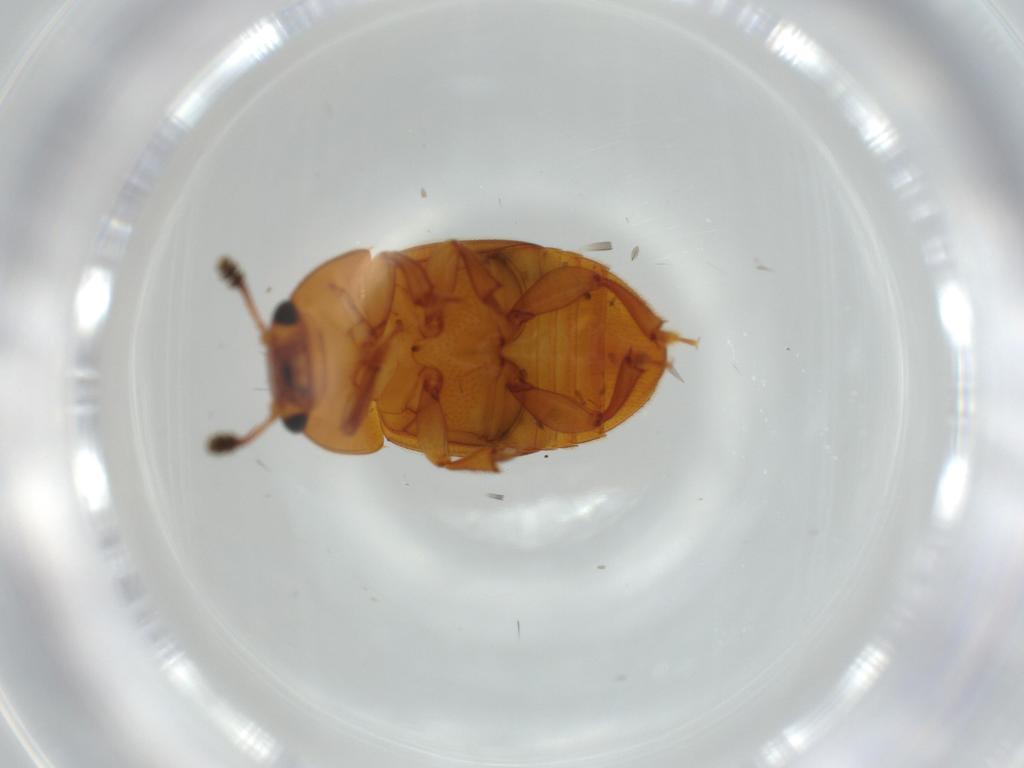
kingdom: Animalia
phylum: Arthropoda
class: Insecta
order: Coleoptera
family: Nitidulidae
